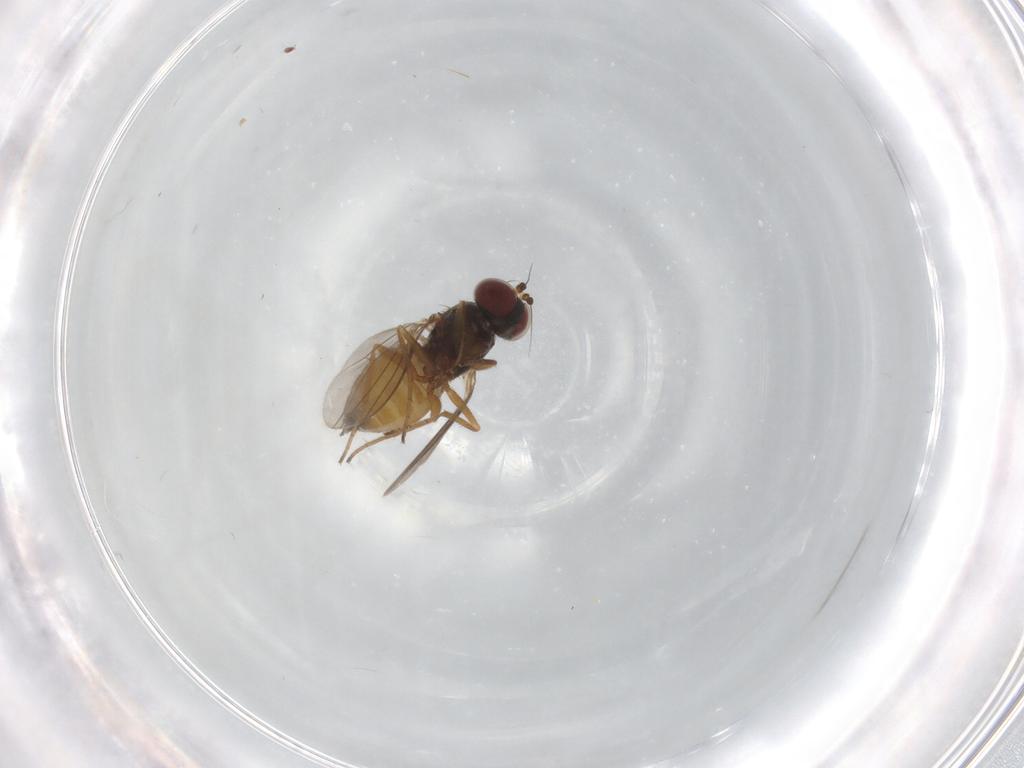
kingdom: Animalia
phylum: Arthropoda
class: Insecta
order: Diptera
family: Dolichopodidae
